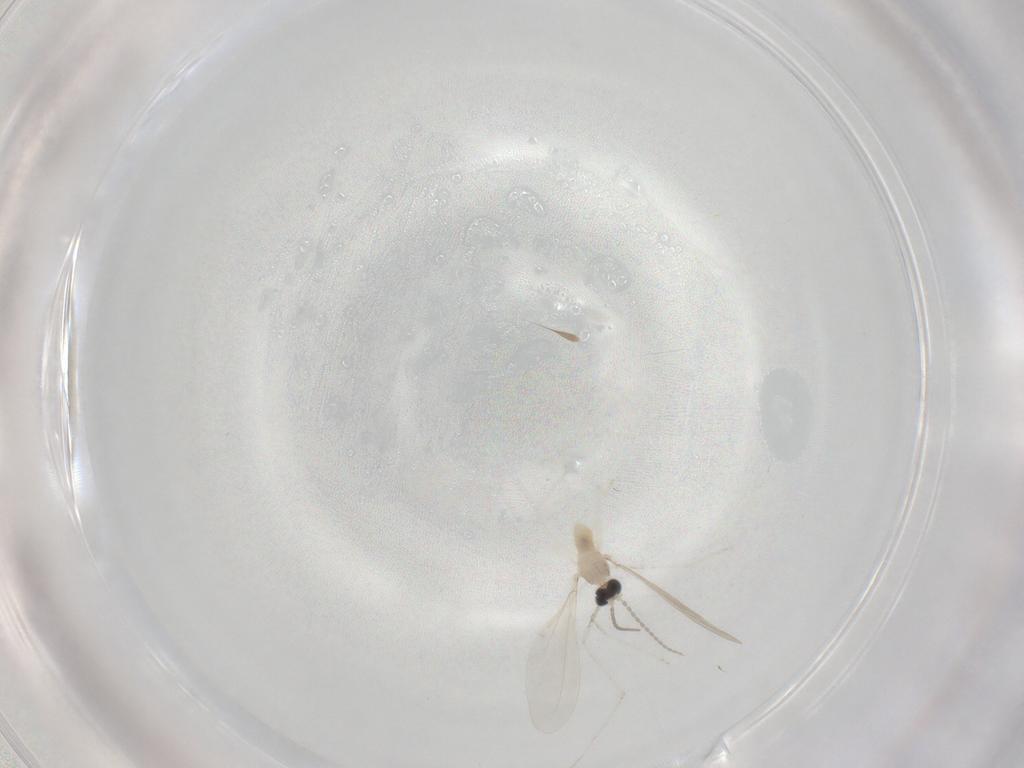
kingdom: Animalia
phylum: Arthropoda
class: Insecta
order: Diptera
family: Cecidomyiidae
